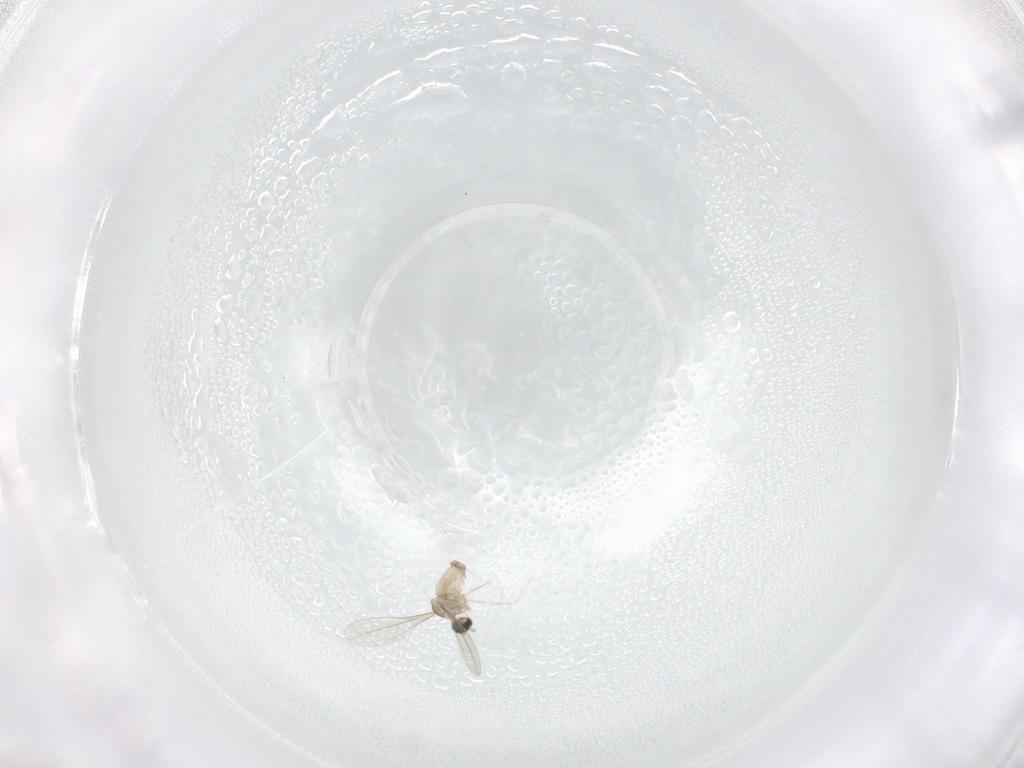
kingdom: Animalia
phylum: Arthropoda
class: Insecta
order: Diptera
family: Cecidomyiidae
